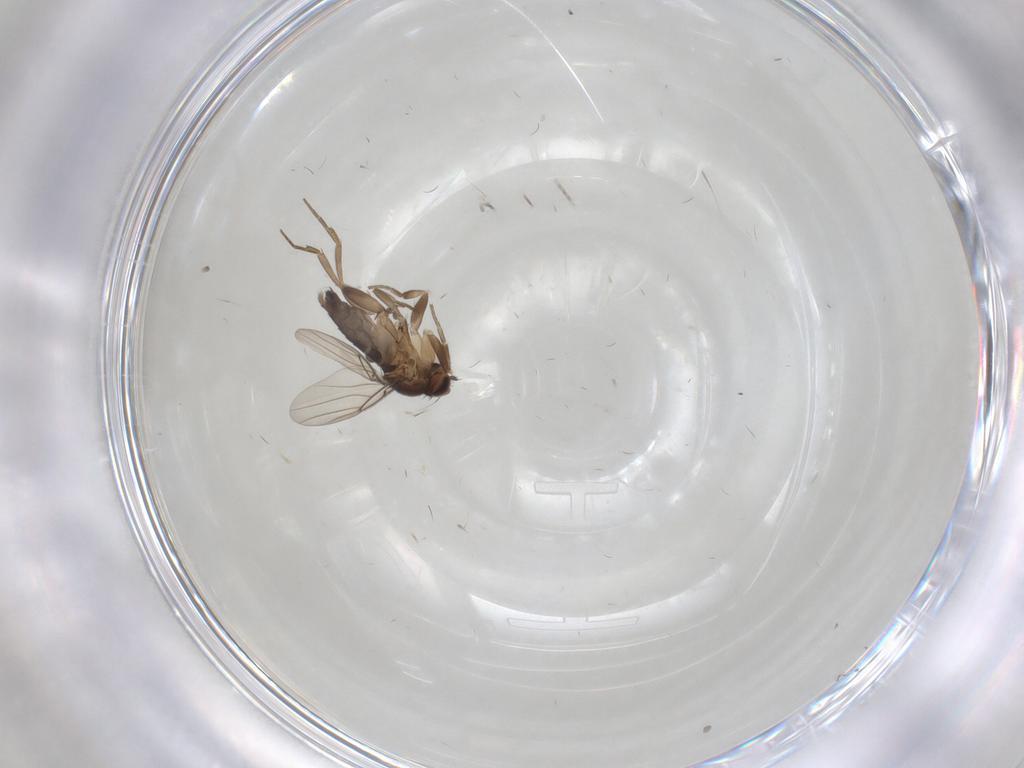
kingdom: Animalia
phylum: Arthropoda
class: Insecta
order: Diptera
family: Phoridae
